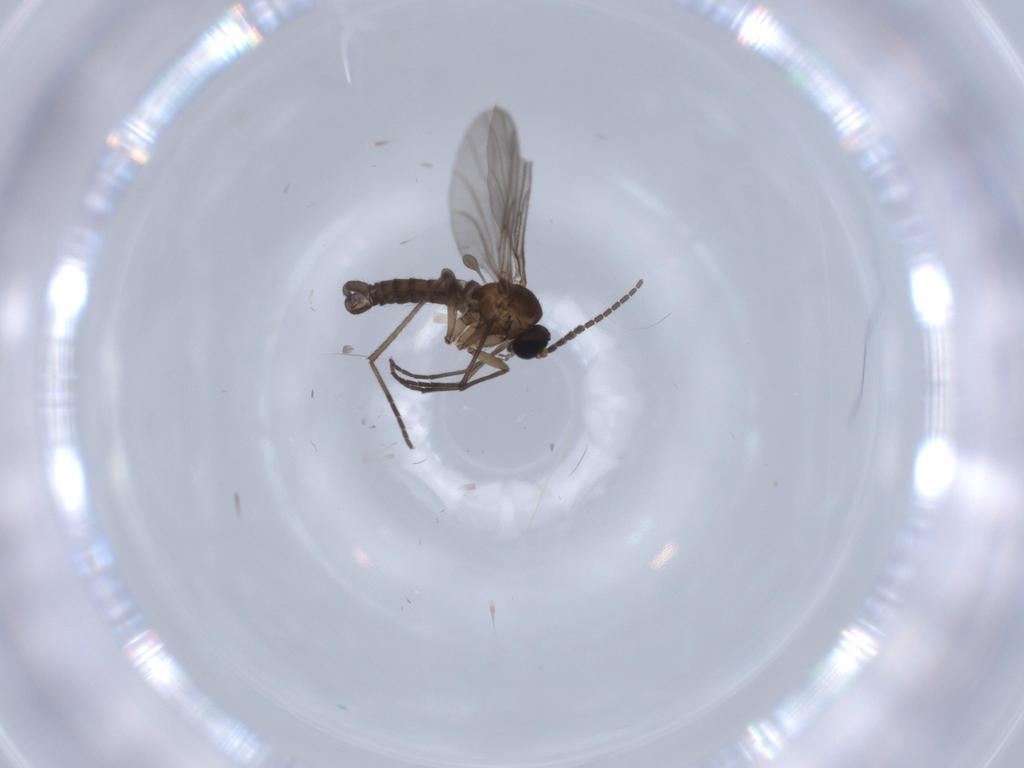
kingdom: Animalia
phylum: Arthropoda
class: Insecta
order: Diptera
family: Sciaridae
